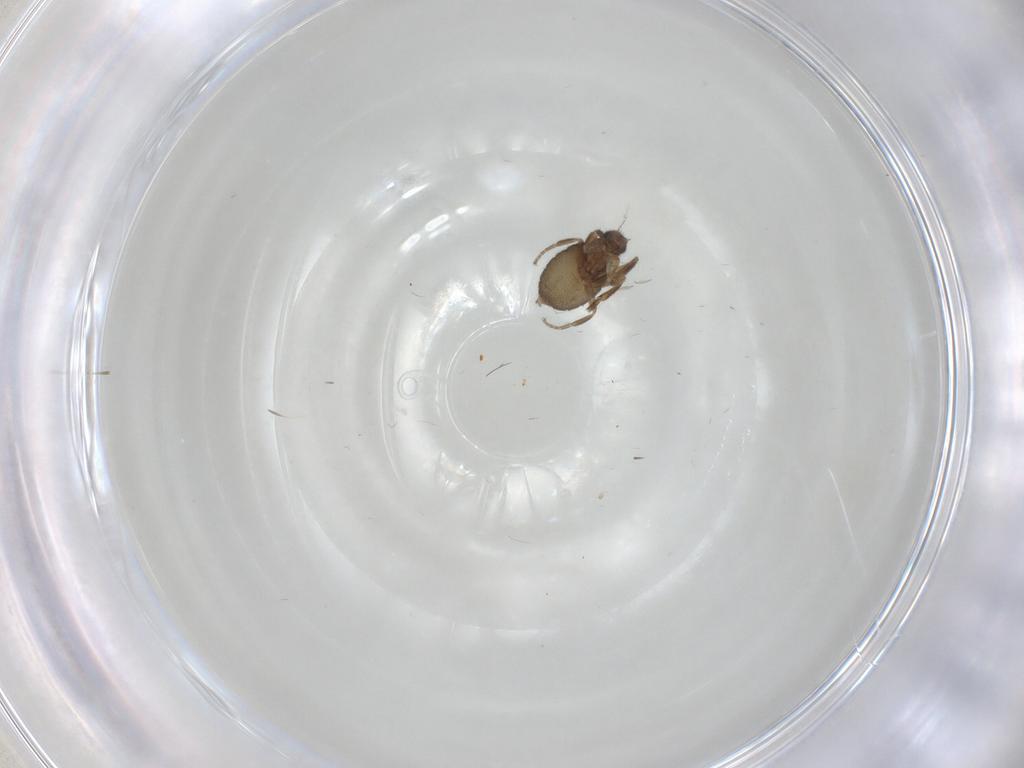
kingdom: Animalia
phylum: Arthropoda
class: Insecta
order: Diptera
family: Phoridae
